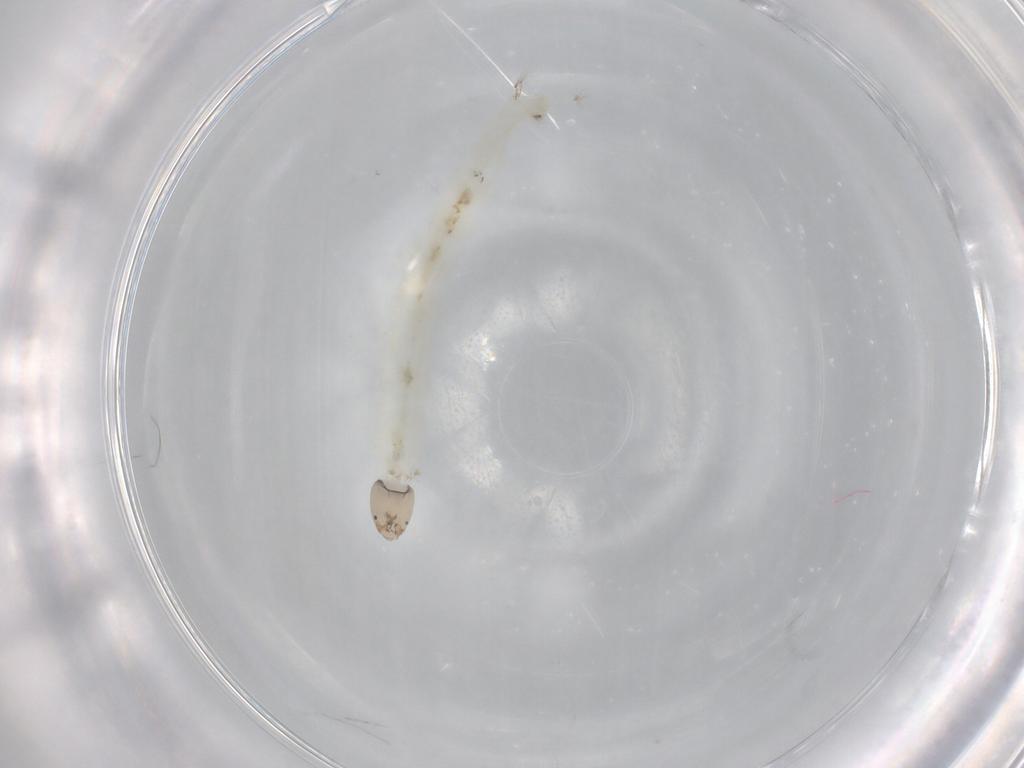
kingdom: Animalia
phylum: Arthropoda
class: Insecta
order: Diptera
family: Chironomidae
